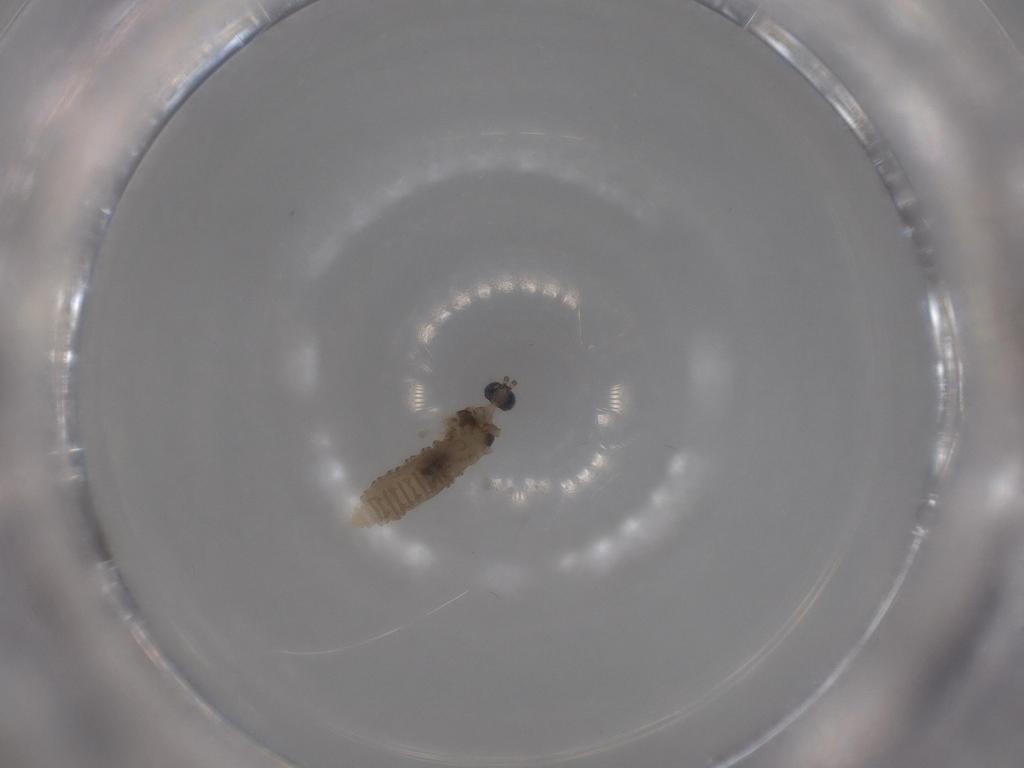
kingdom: Animalia
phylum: Arthropoda
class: Insecta
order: Diptera
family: Cecidomyiidae
